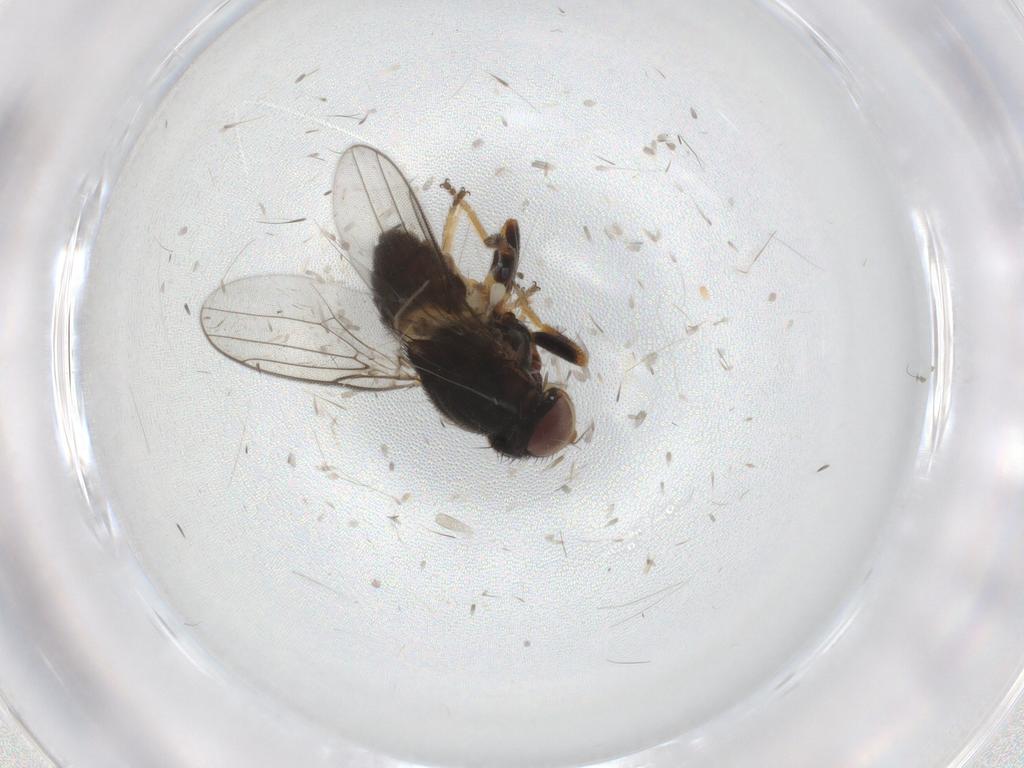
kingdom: Animalia
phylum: Arthropoda
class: Insecta
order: Diptera
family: Chloropidae
